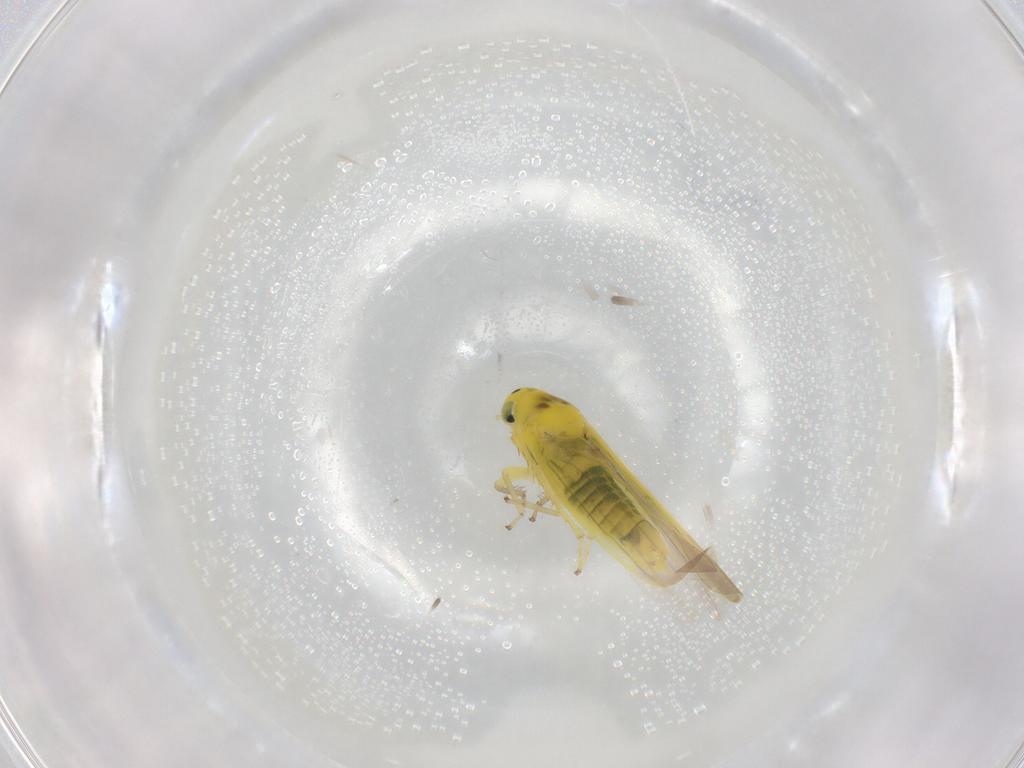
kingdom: Animalia
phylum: Arthropoda
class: Insecta
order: Hemiptera
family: Cicadellidae
